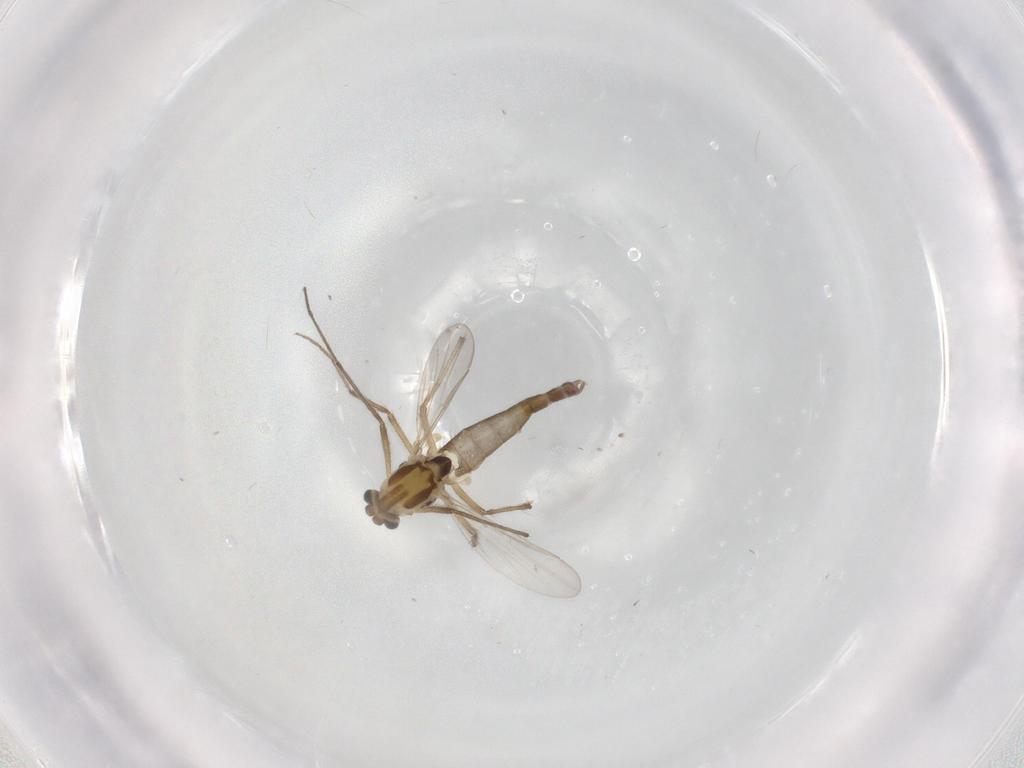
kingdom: Animalia
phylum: Arthropoda
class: Insecta
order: Diptera
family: Chironomidae
